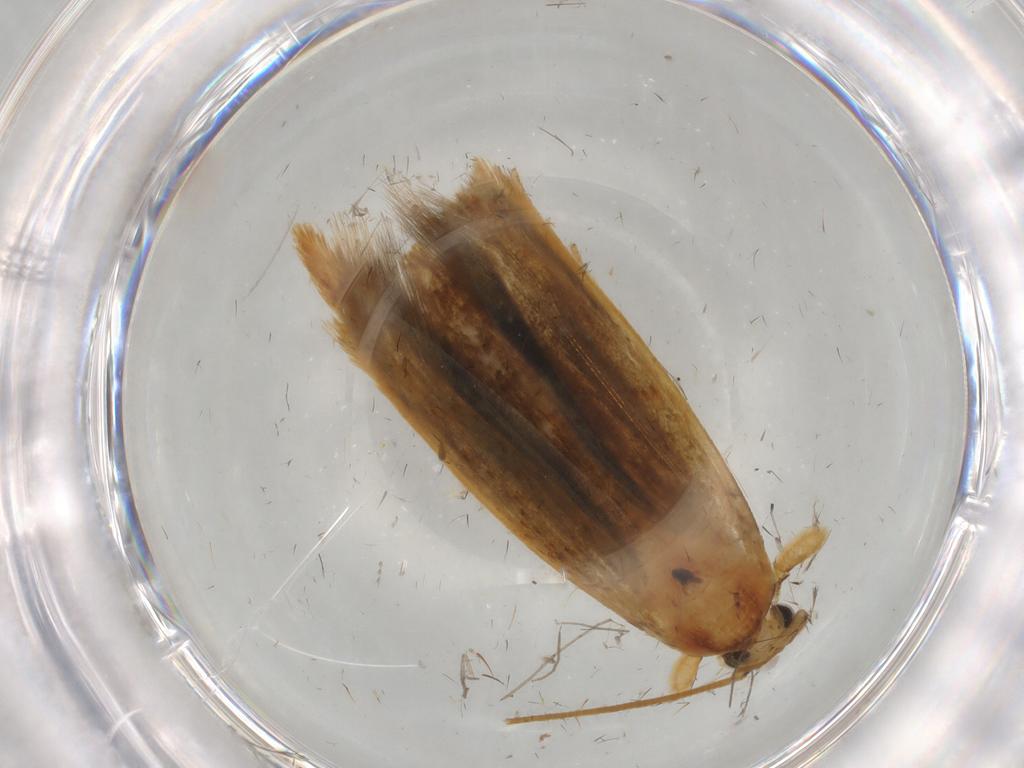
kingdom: Animalia
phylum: Arthropoda
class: Insecta
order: Lepidoptera
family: Tineidae
